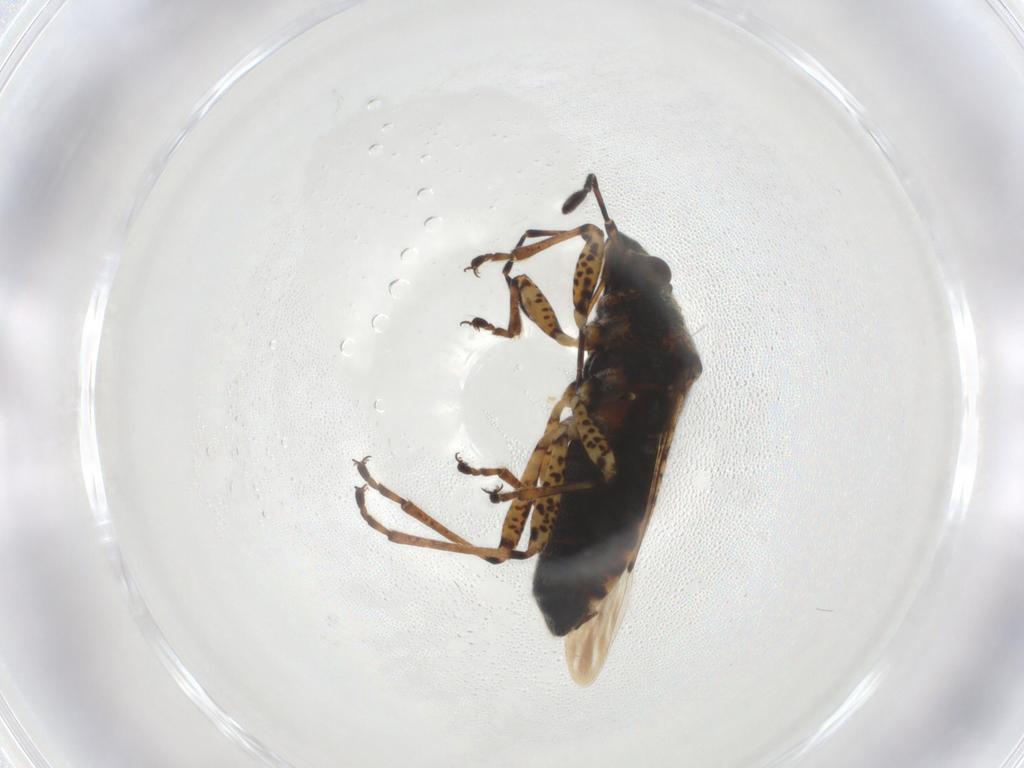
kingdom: Animalia
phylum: Arthropoda
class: Insecta
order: Hemiptera
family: Lygaeidae
